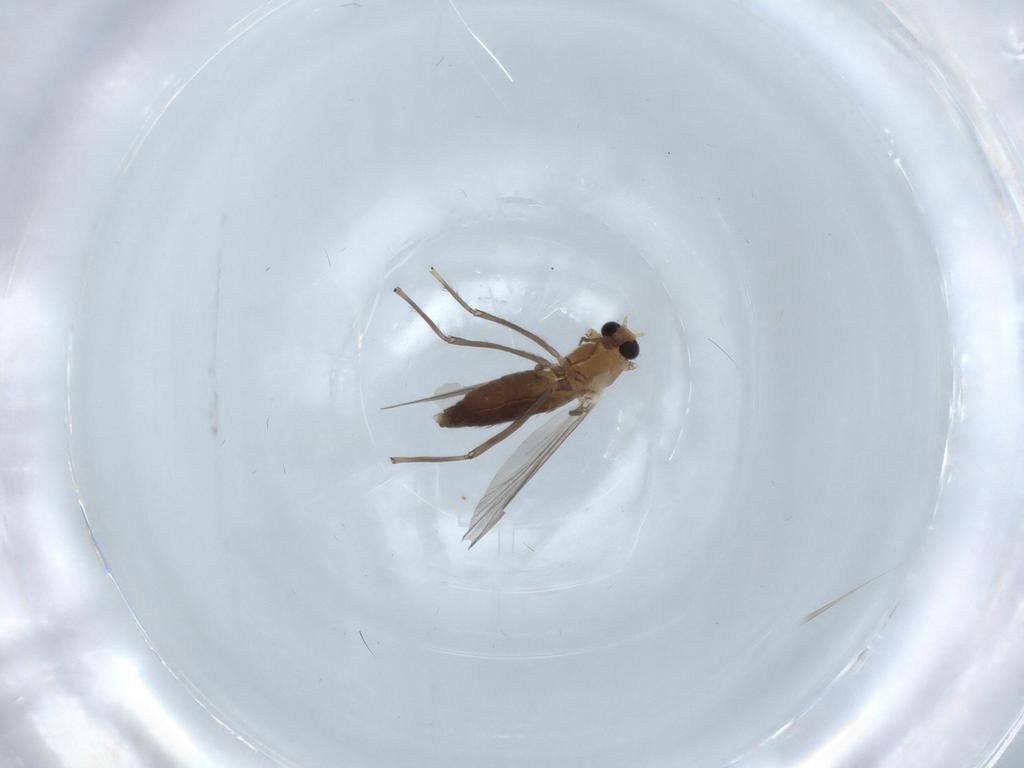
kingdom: Animalia
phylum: Arthropoda
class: Insecta
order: Diptera
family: Chironomidae
